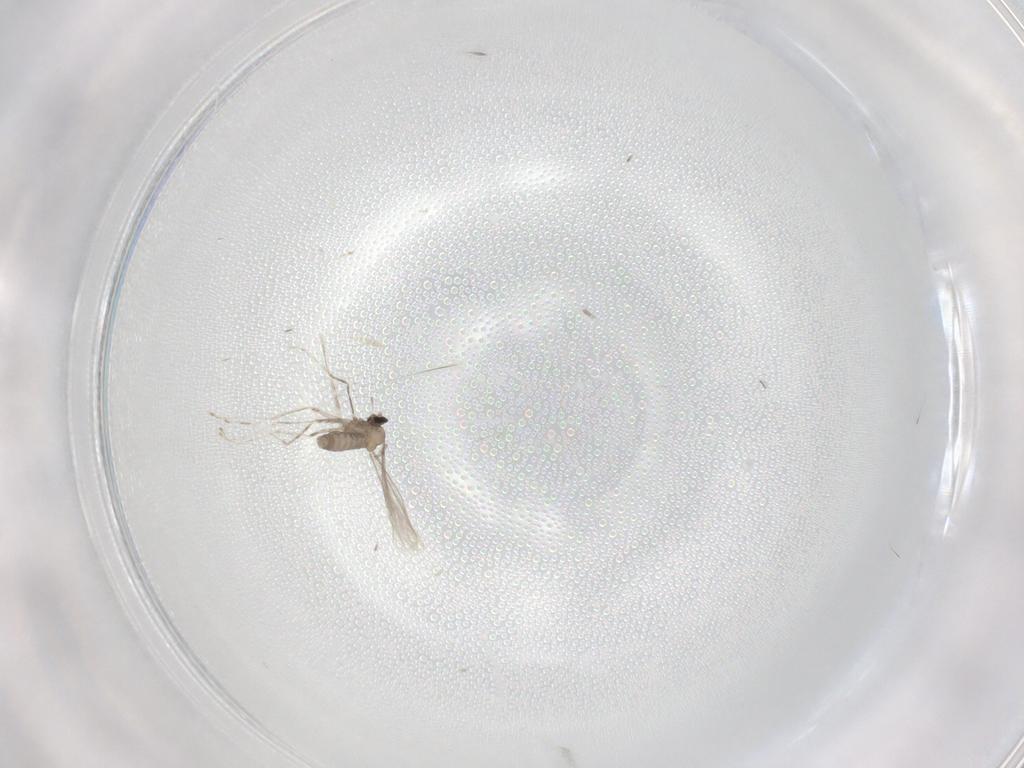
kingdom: Animalia
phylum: Arthropoda
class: Insecta
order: Diptera
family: Cecidomyiidae
